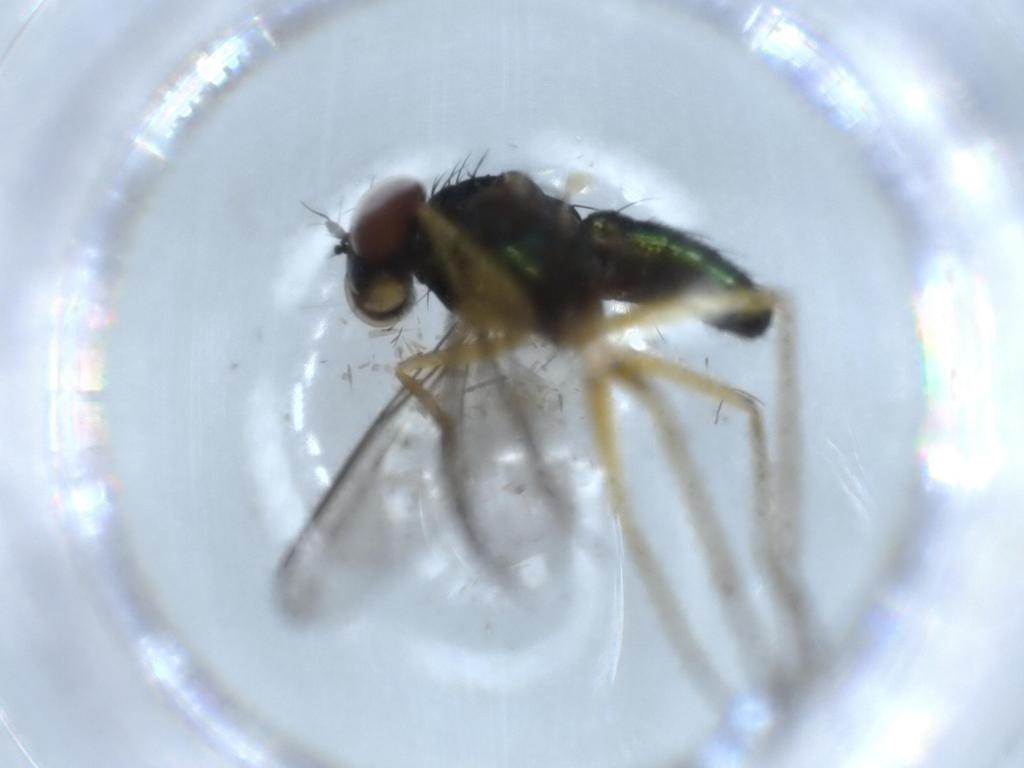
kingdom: Animalia
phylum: Arthropoda
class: Insecta
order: Diptera
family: Dolichopodidae
